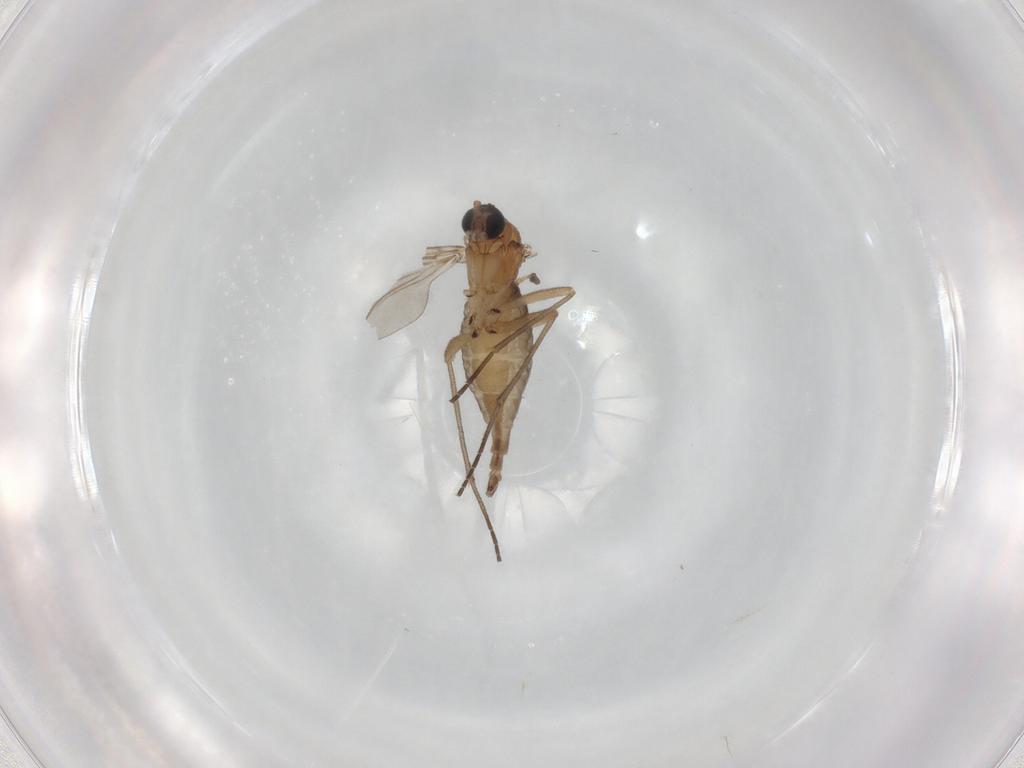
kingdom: Animalia
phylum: Arthropoda
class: Insecta
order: Diptera
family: Sciaridae
